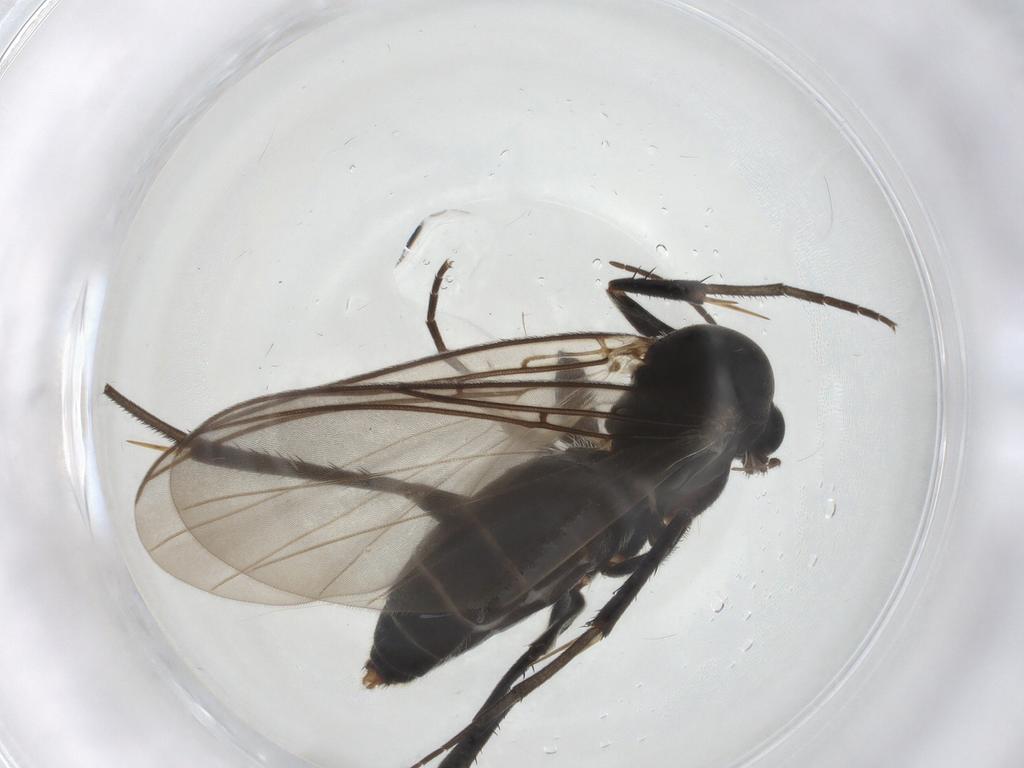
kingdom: Animalia
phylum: Arthropoda
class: Insecta
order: Diptera
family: Mycetophilidae
